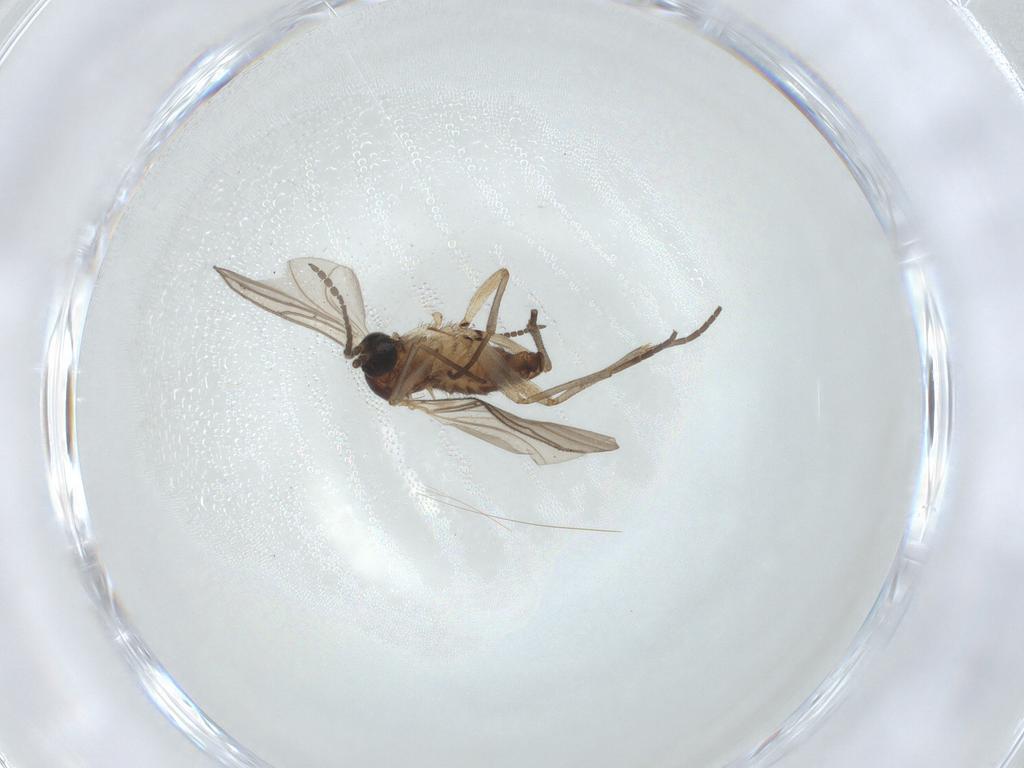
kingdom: Animalia
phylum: Arthropoda
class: Insecta
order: Diptera
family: Sciaridae
